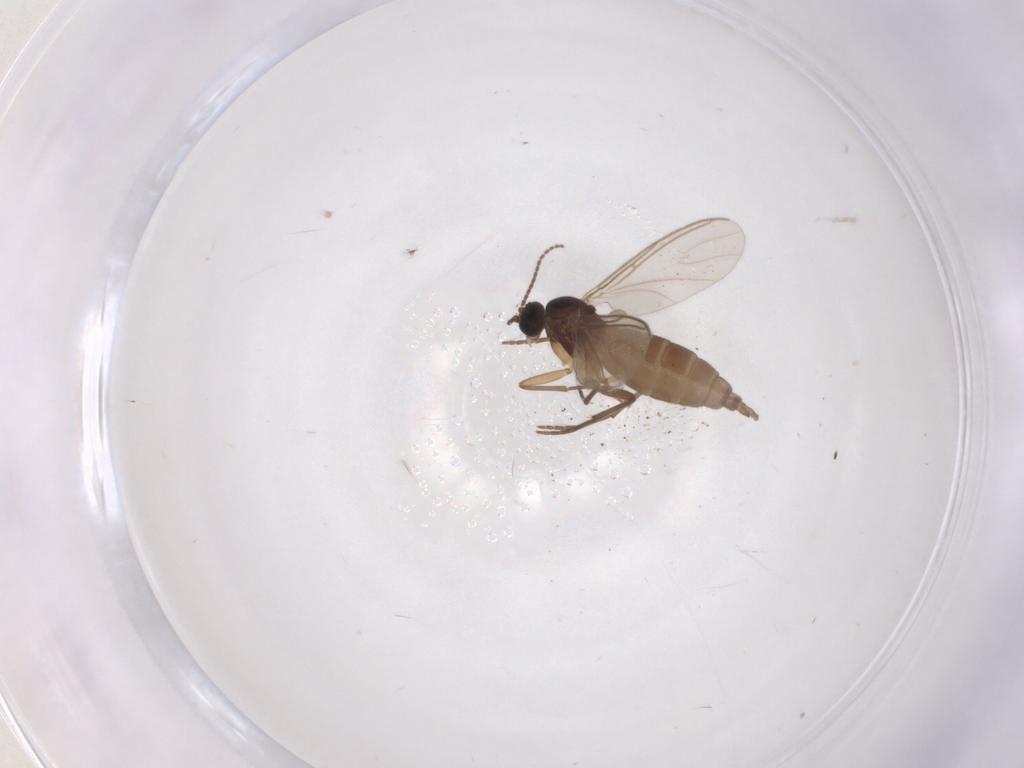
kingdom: Animalia
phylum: Arthropoda
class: Insecta
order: Diptera
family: Sciaridae
